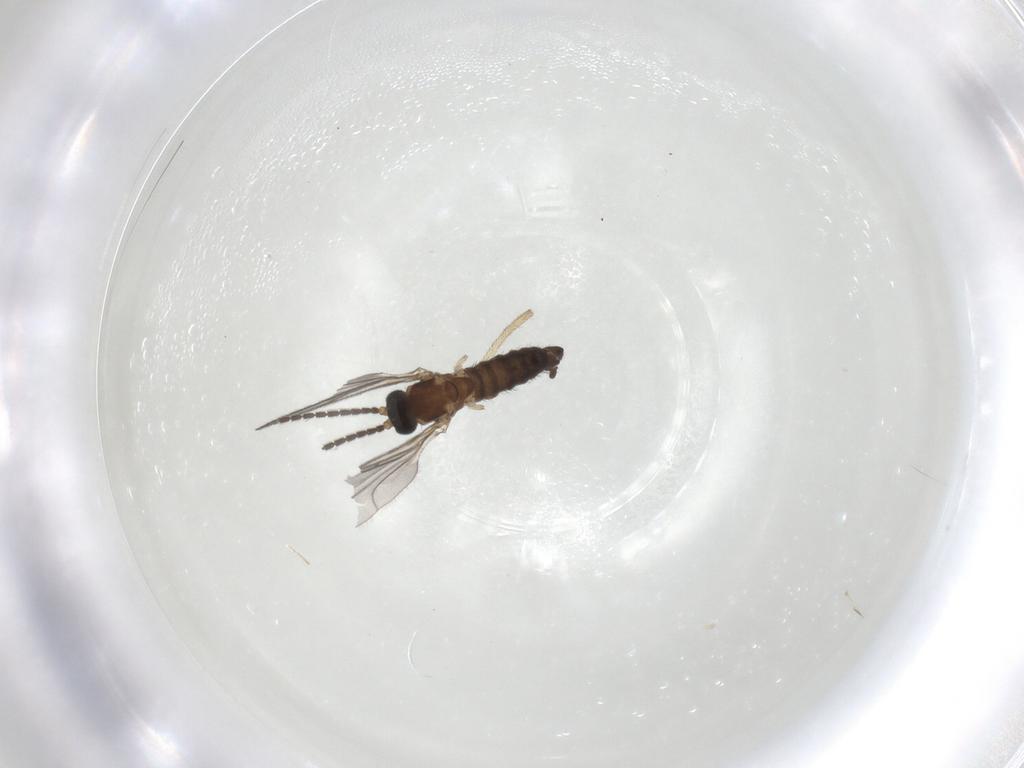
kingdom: Animalia
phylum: Arthropoda
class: Insecta
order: Diptera
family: Sciaridae
